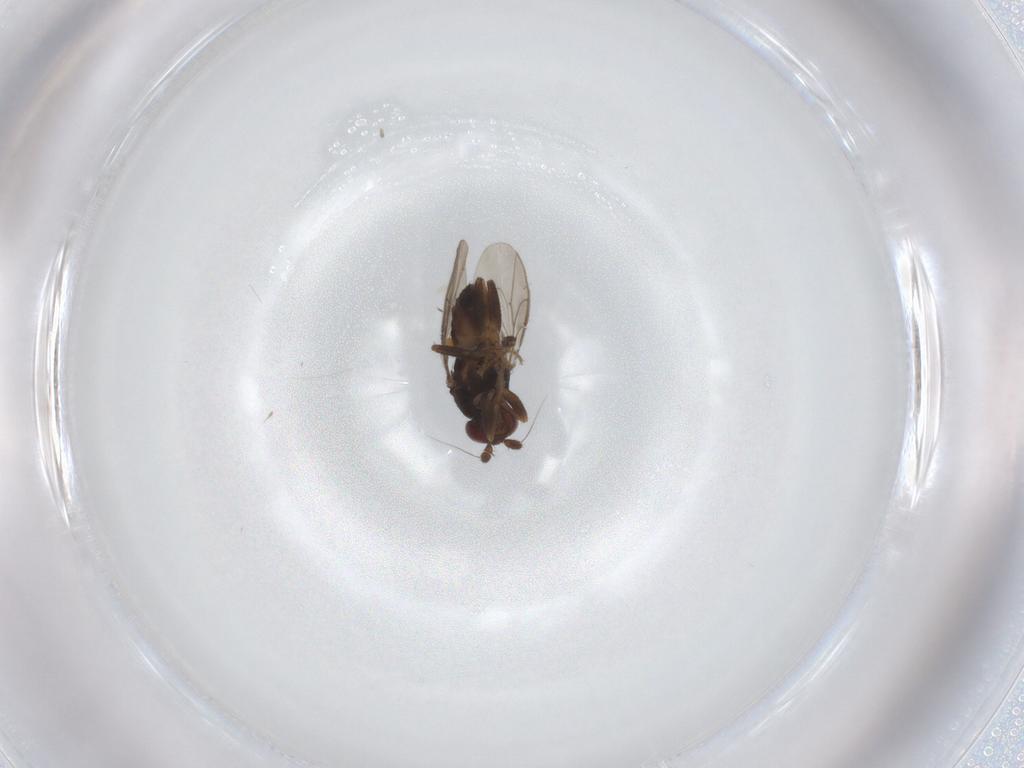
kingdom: Animalia
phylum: Arthropoda
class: Insecta
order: Diptera
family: Sphaeroceridae
